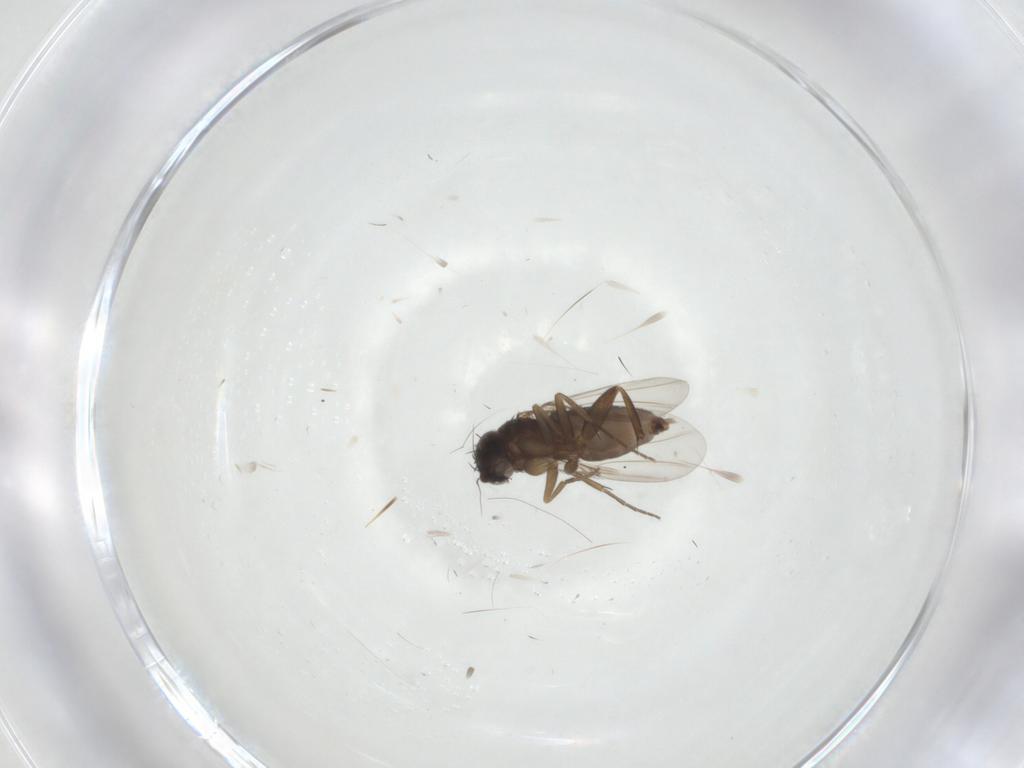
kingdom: Animalia
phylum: Arthropoda
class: Insecta
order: Diptera
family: Phoridae
